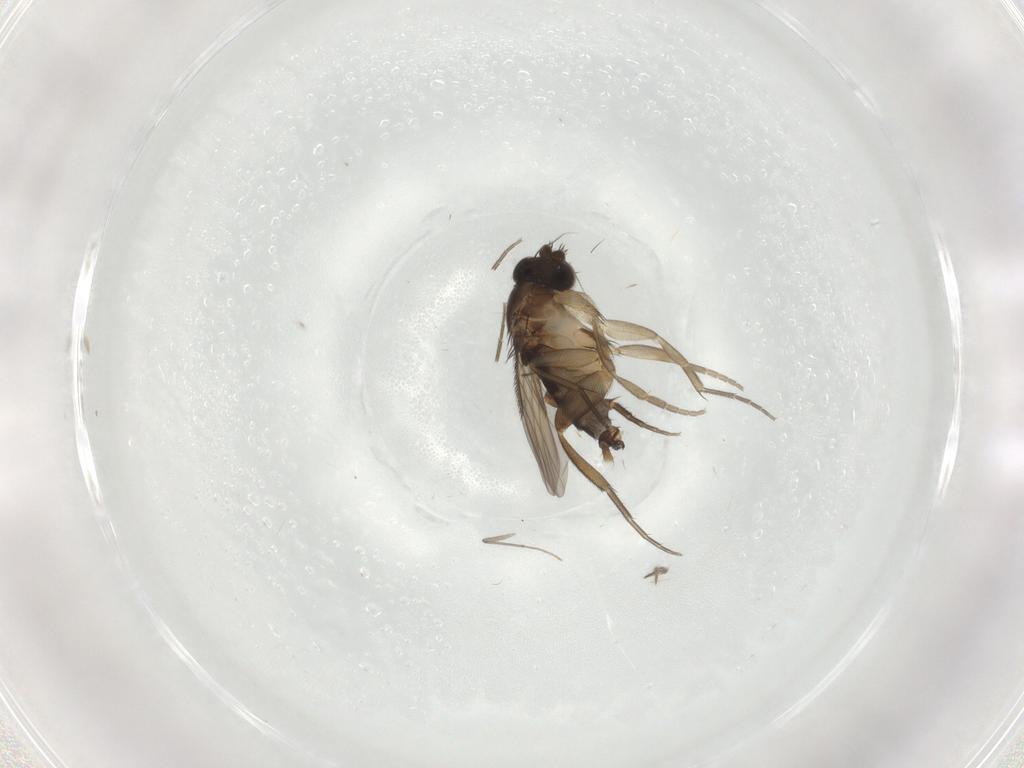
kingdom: Animalia
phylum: Arthropoda
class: Insecta
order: Diptera
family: Phoridae
